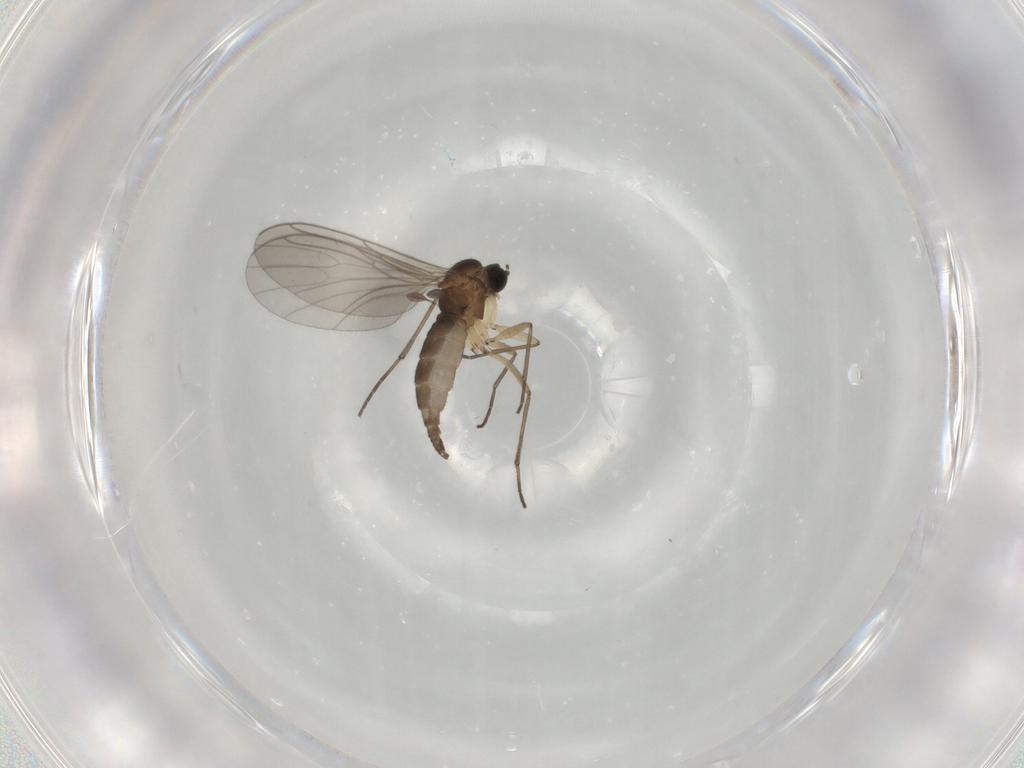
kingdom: Animalia
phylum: Arthropoda
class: Insecta
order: Diptera
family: Sciaridae
